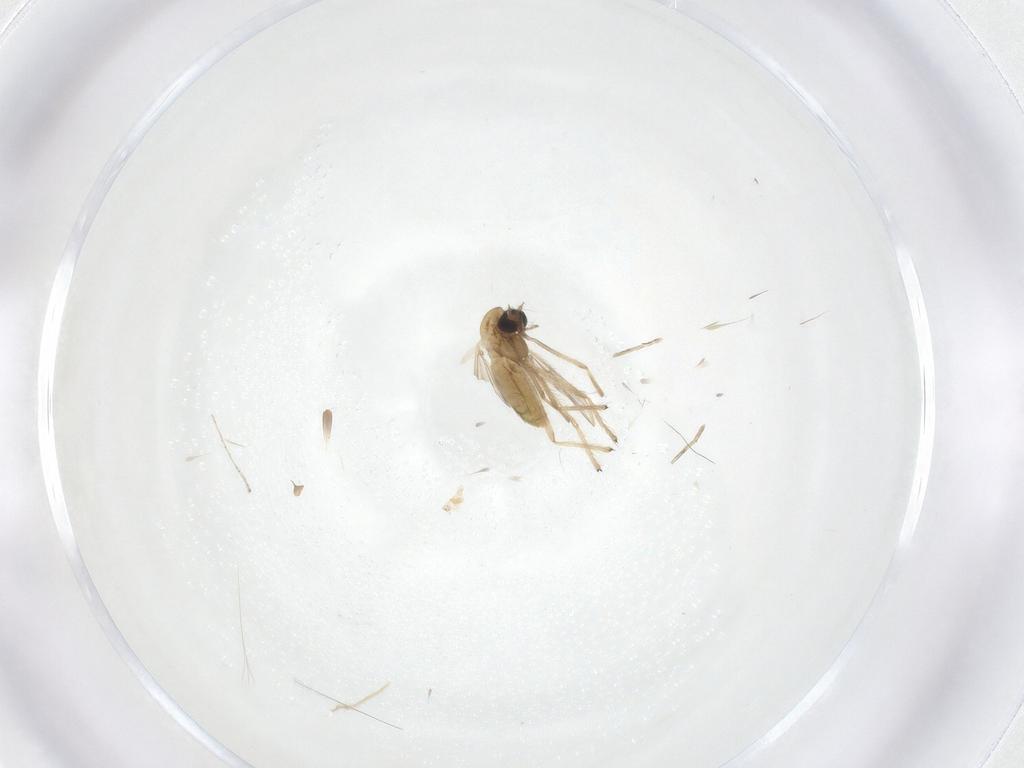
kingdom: Animalia
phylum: Arthropoda
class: Insecta
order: Diptera
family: Chironomidae
